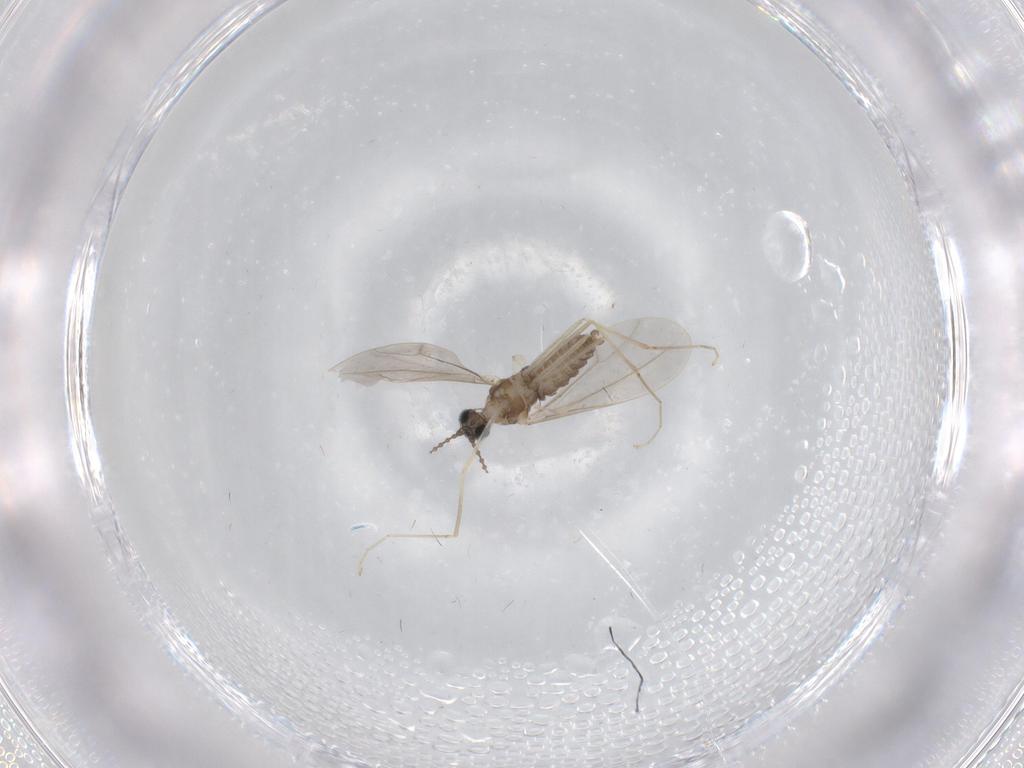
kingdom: Animalia
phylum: Arthropoda
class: Insecta
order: Diptera
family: Cecidomyiidae
